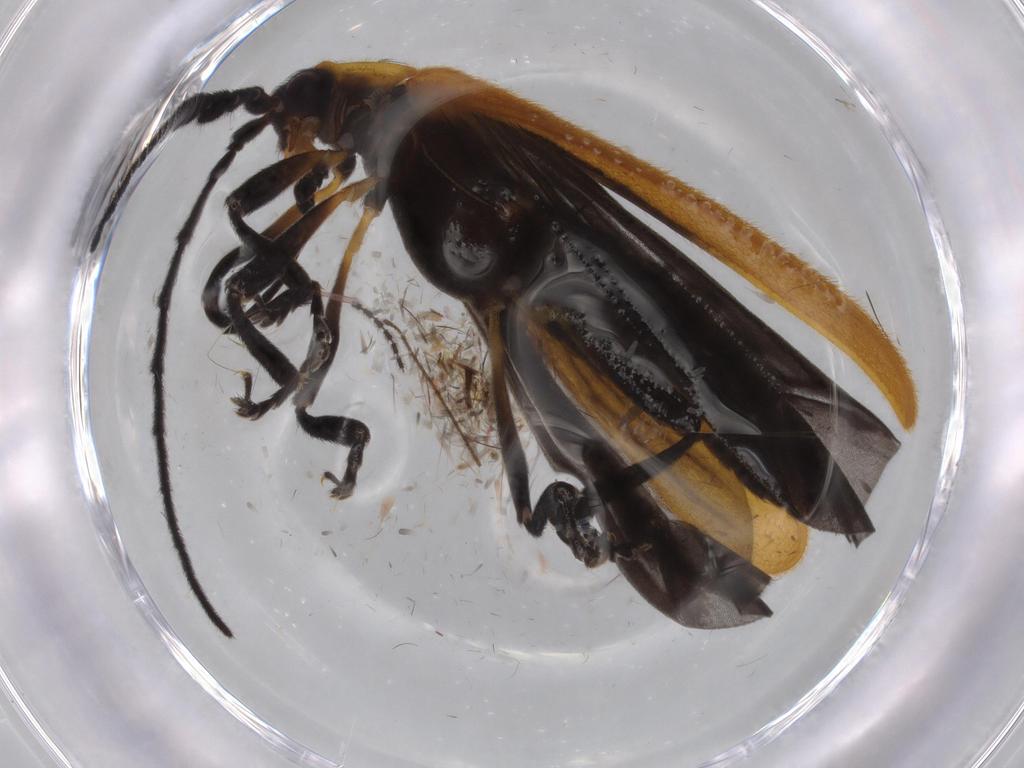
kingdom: Animalia
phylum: Arthropoda
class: Insecta
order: Coleoptera
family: Lycidae
